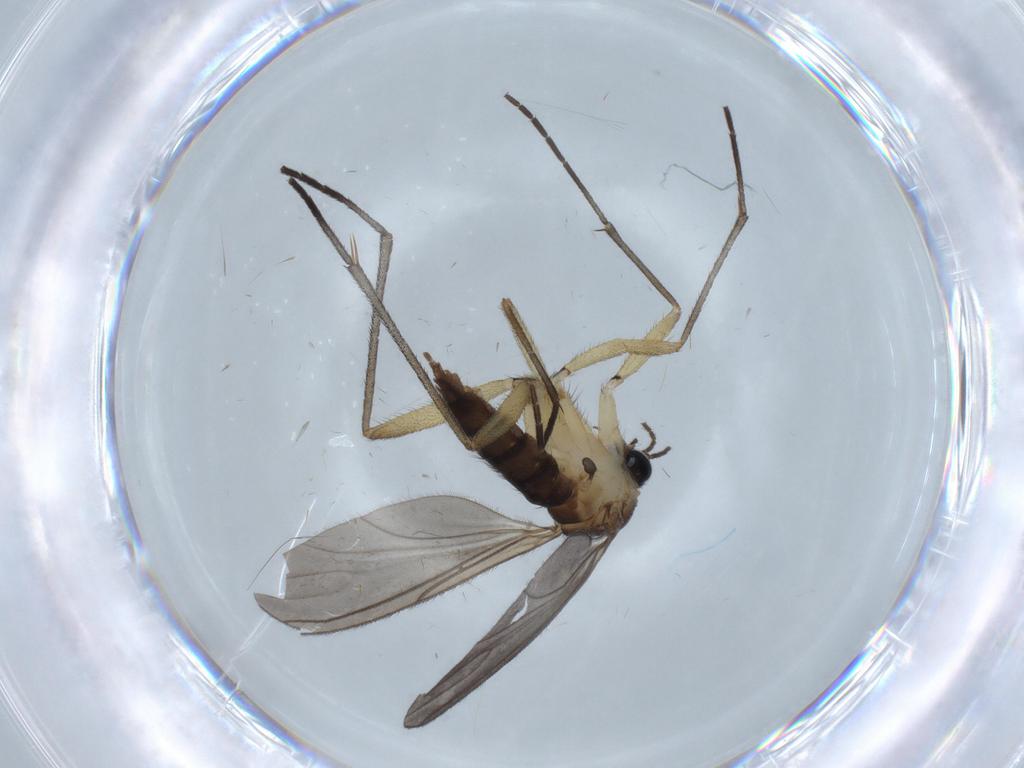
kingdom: Animalia
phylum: Arthropoda
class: Insecta
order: Diptera
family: Sciaridae
